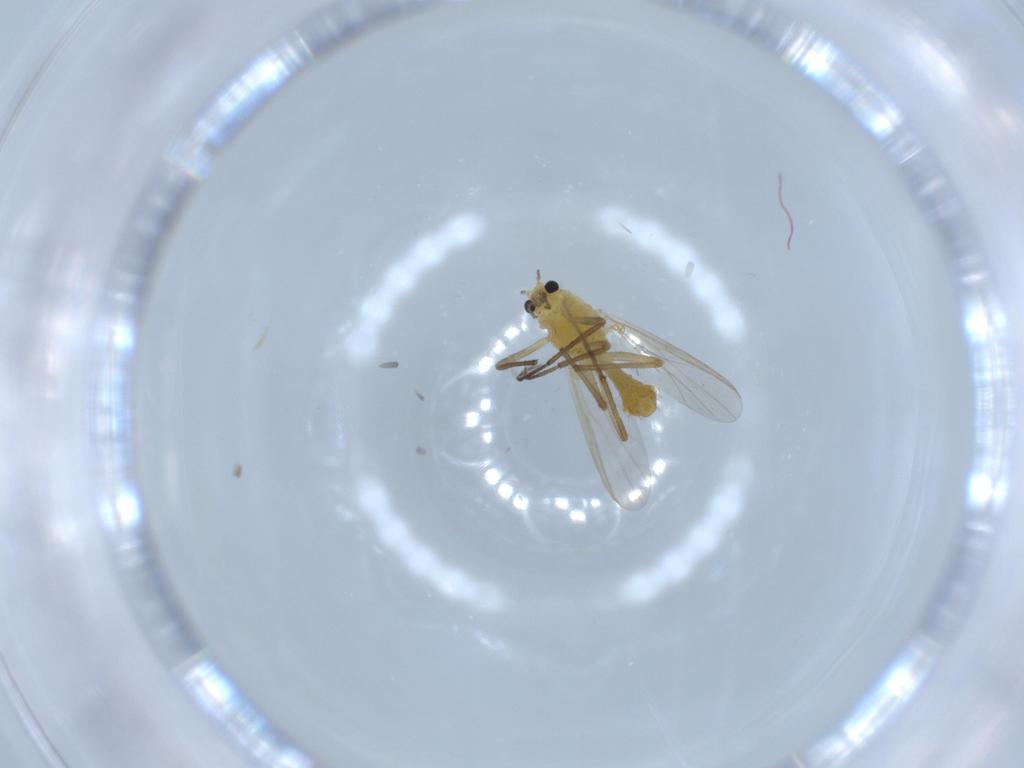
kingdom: Animalia
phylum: Arthropoda
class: Insecta
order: Diptera
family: Chironomidae
